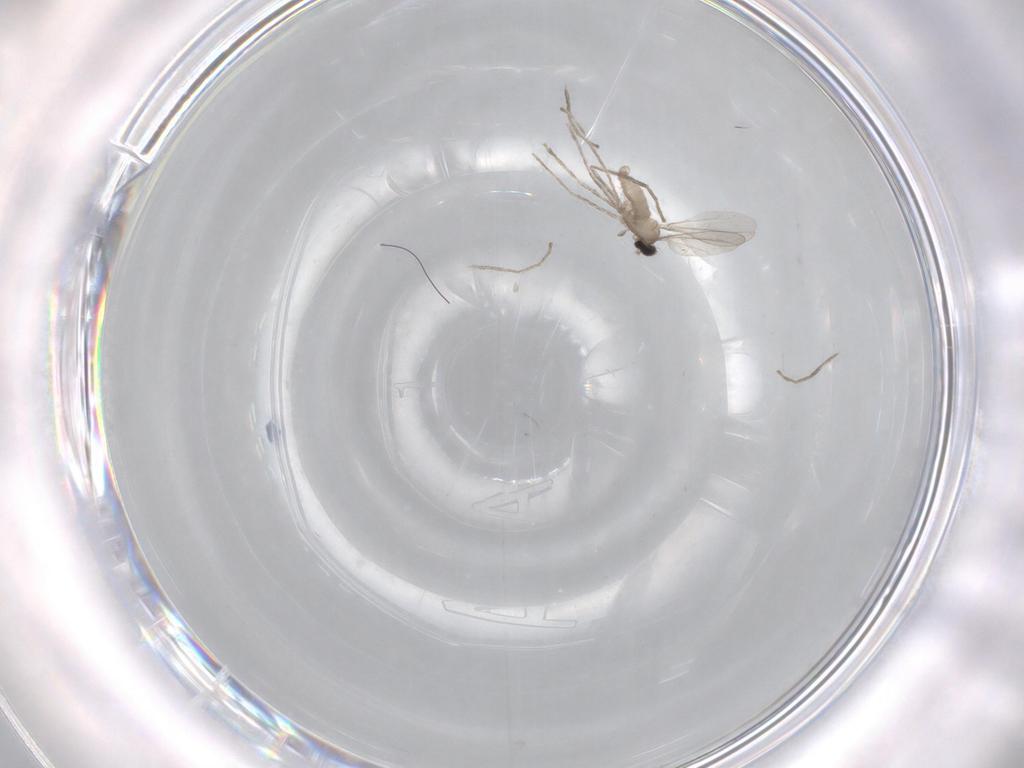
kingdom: Animalia
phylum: Arthropoda
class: Insecta
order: Diptera
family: Cecidomyiidae
